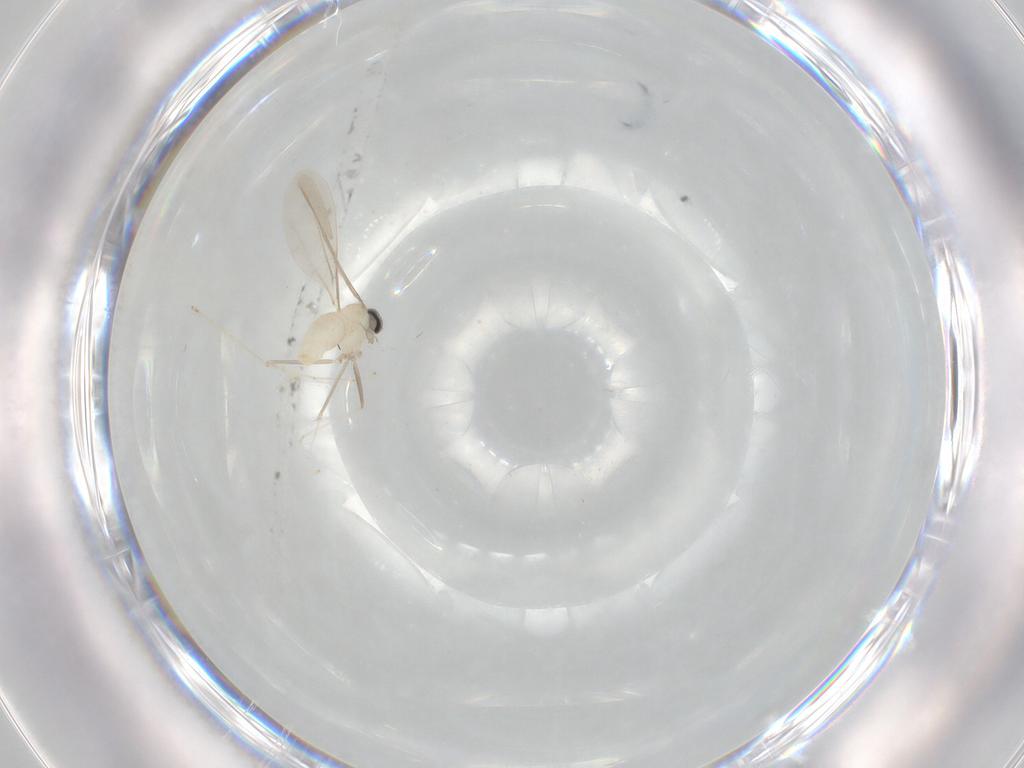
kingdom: Animalia
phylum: Arthropoda
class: Insecta
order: Diptera
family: Cecidomyiidae
